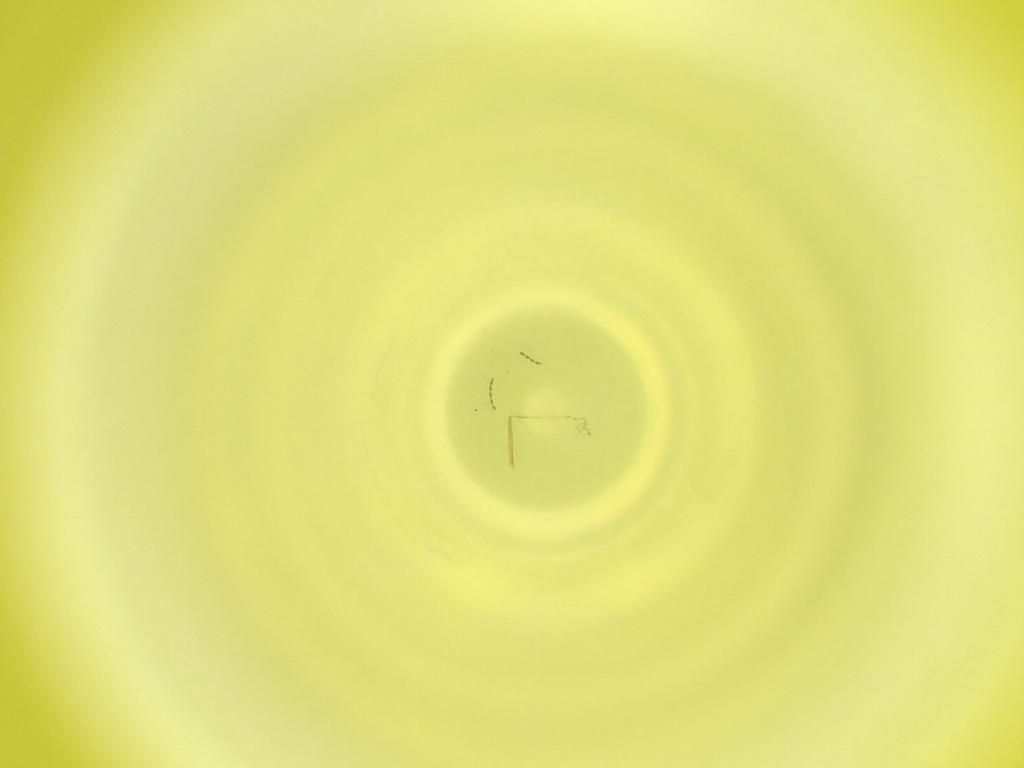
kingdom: Animalia
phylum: Arthropoda
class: Insecta
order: Diptera
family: Cecidomyiidae
